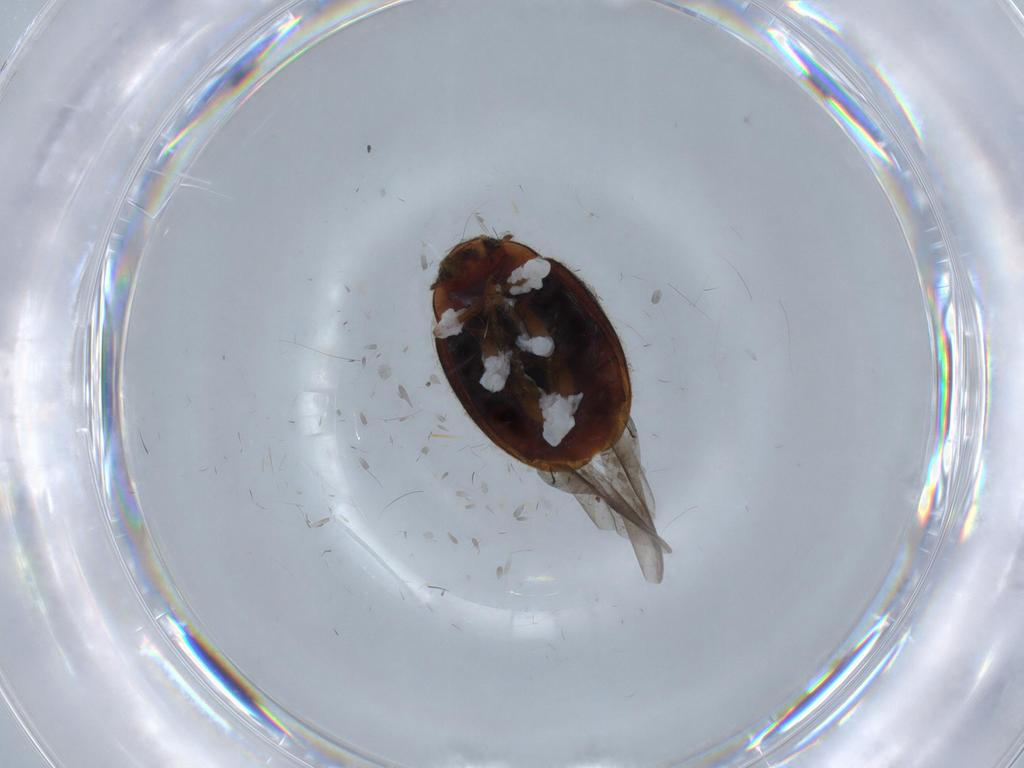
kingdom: Animalia
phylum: Arthropoda
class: Insecta
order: Coleoptera
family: Coccinellidae
